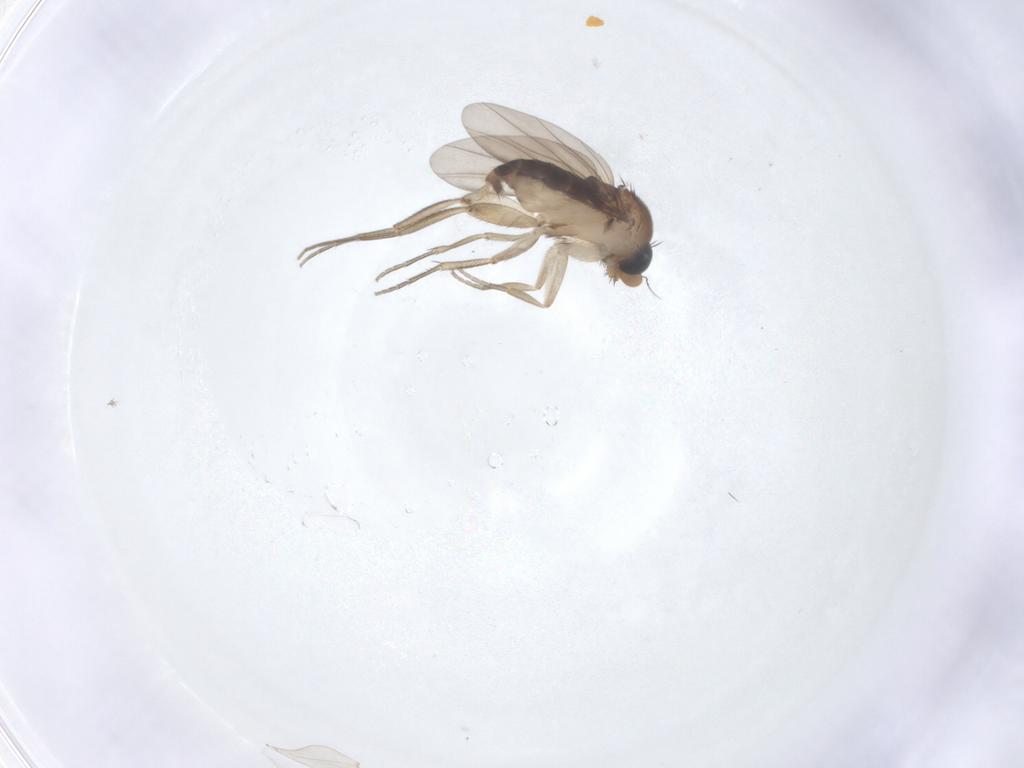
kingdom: Animalia
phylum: Arthropoda
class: Insecta
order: Diptera
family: Phoridae
